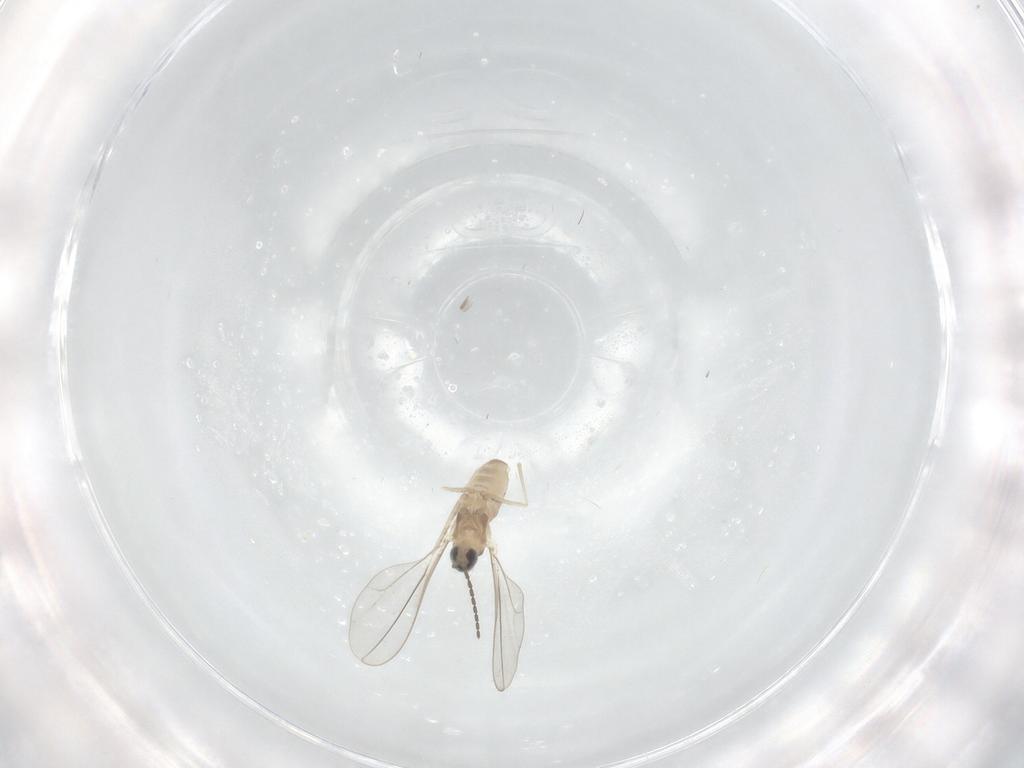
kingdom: Animalia
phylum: Arthropoda
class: Insecta
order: Diptera
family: Cecidomyiidae
